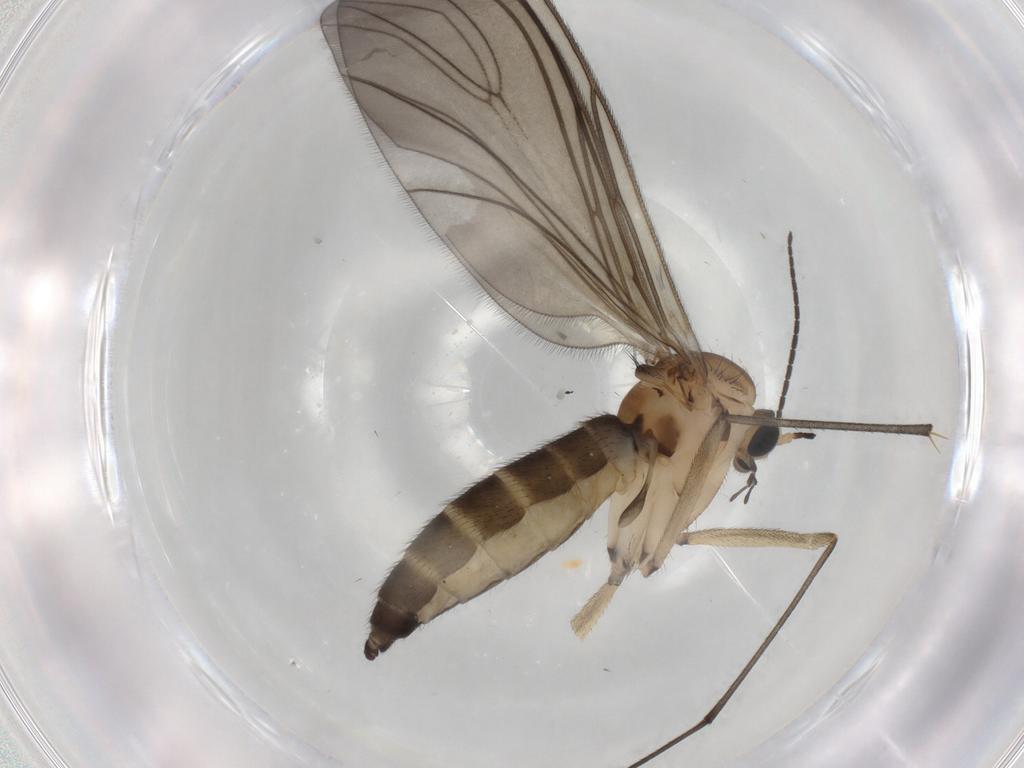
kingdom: Animalia
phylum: Arthropoda
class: Insecta
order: Diptera
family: Sciaridae
